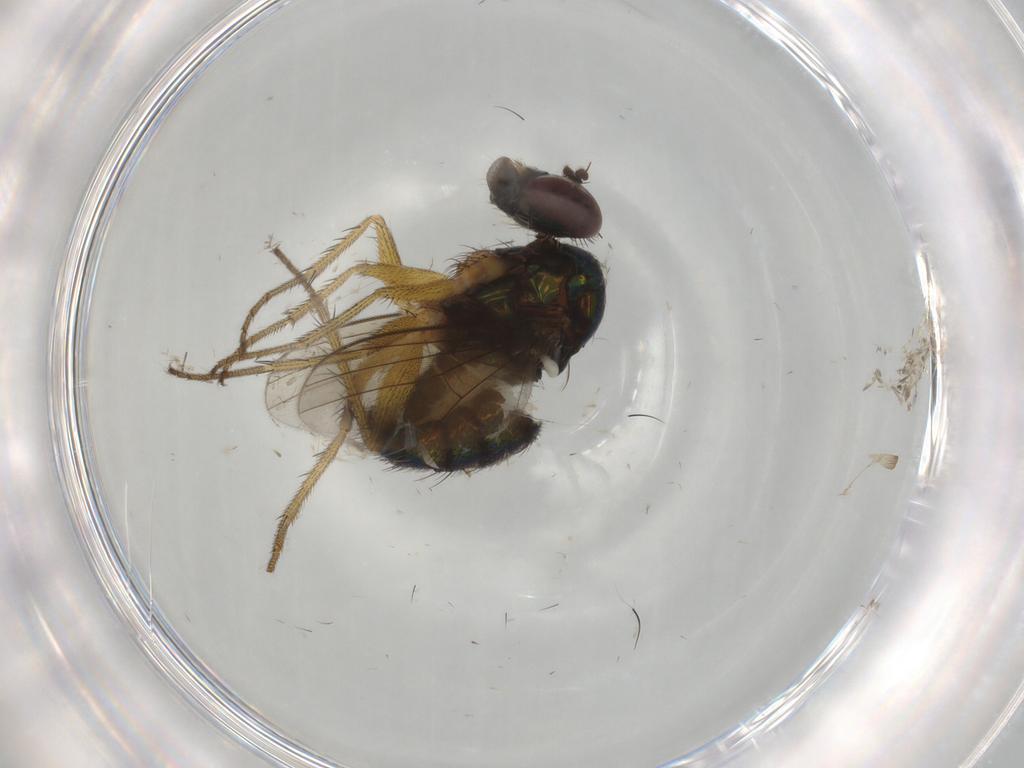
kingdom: Animalia
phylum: Arthropoda
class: Insecta
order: Diptera
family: Dolichopodidae
